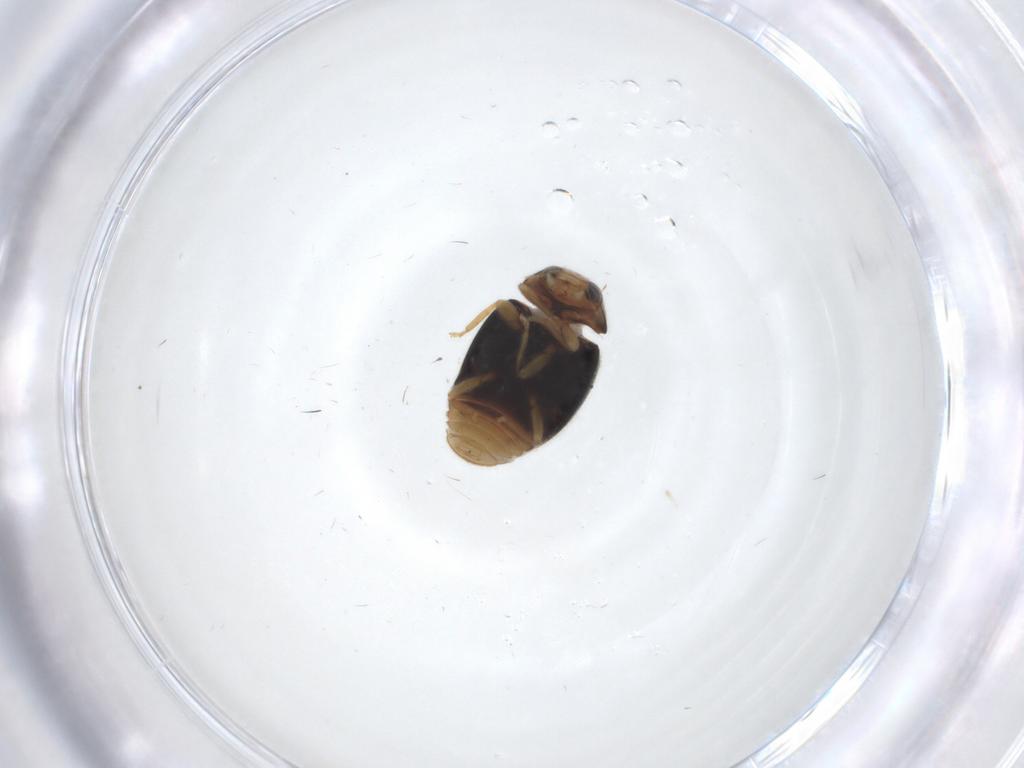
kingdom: Animalia
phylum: Arthropoda
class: Insecta
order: Coleoptera
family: Coccinellidae
